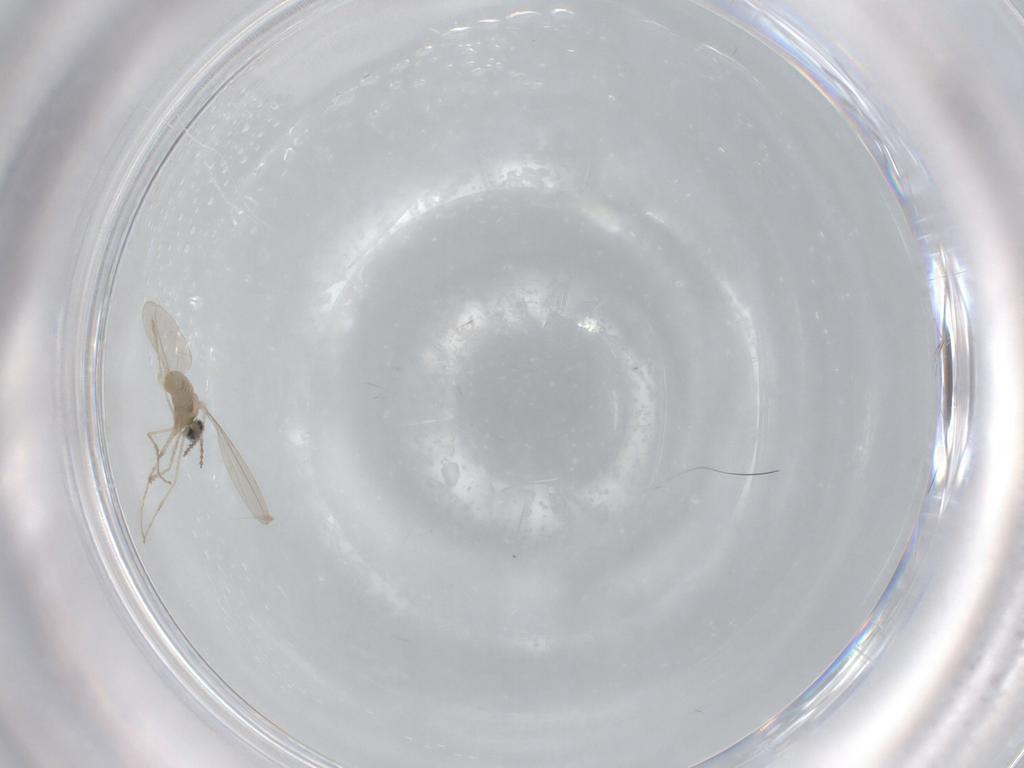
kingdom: Animalia
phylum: Arthropoda
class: Insecta
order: Diptera
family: Cecidomyiidae
